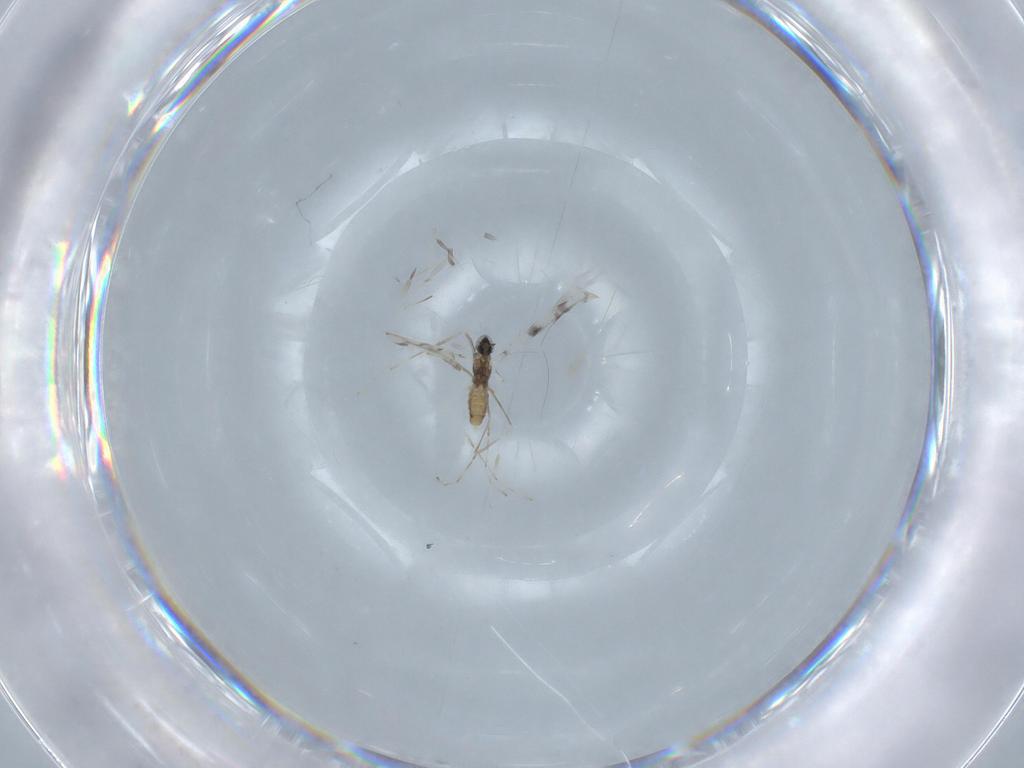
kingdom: Animalia
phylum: Arthropoda
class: Insecta
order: Diptera
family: Cecidomyiidae
